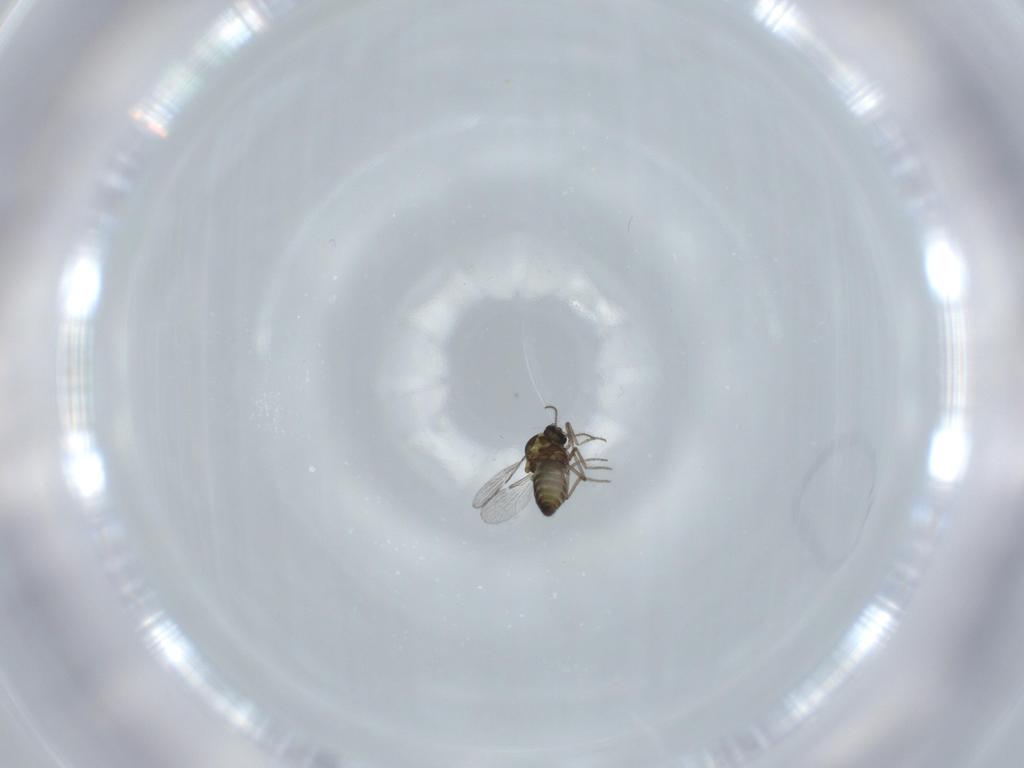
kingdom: Animalia
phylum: Arthropoda
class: Insecta
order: Diptera
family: Ceratopogonidae
